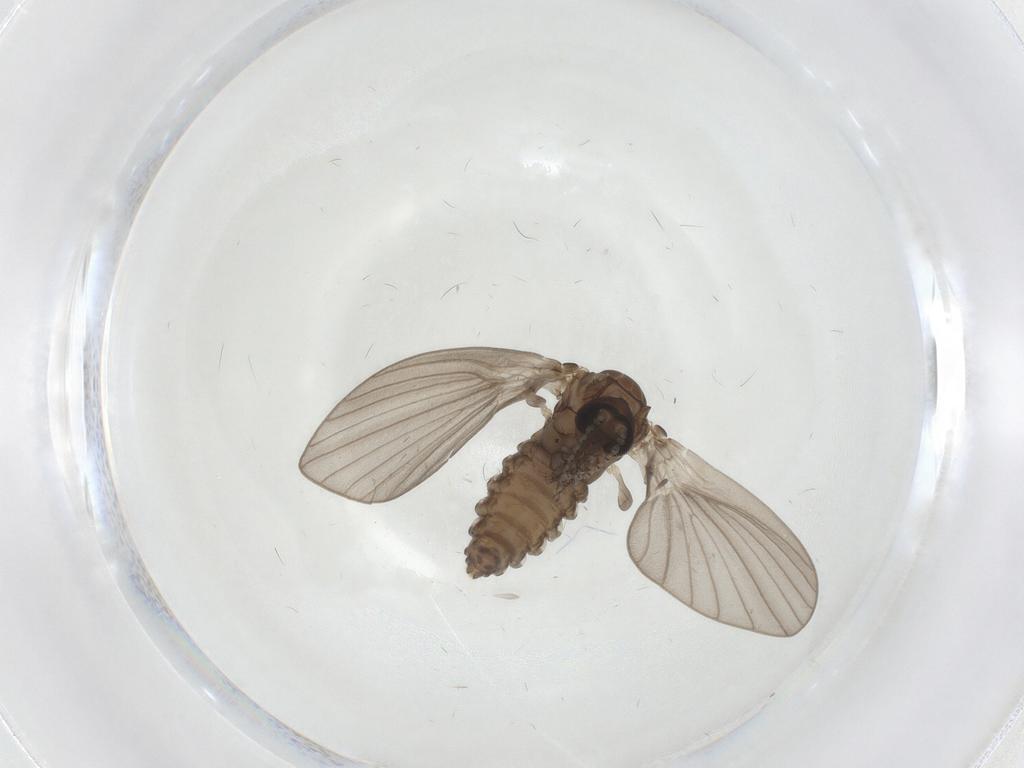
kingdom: Animalia
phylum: Arthropoda
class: Insecta
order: Diptera
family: Psychodidae
